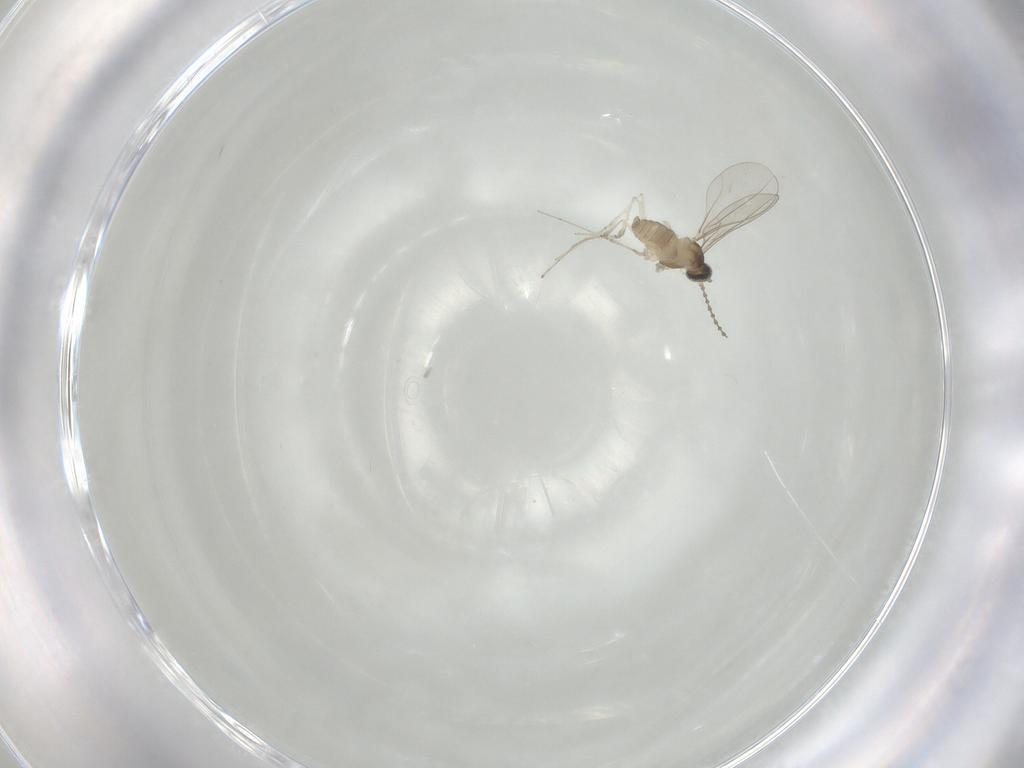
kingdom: Animalia
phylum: Arthropoda
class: Insecta
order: Diptera
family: Cecidomyiidae
